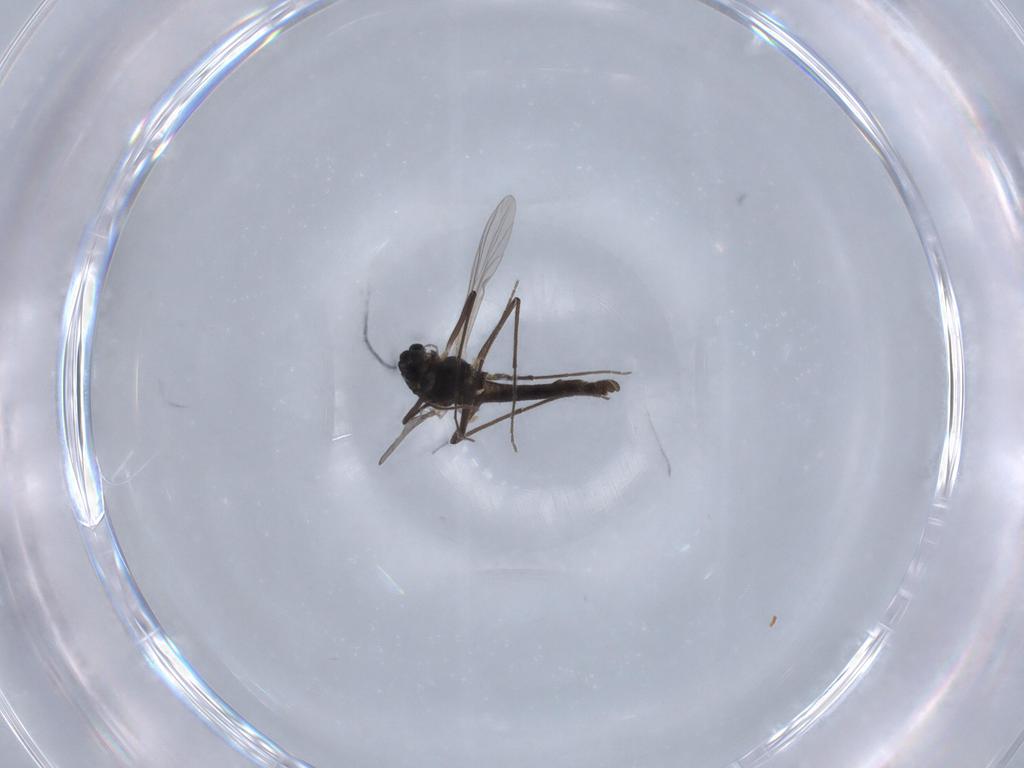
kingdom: Animalia
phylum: Arthropoda
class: Insecta
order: Diptera
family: Chironomidae
